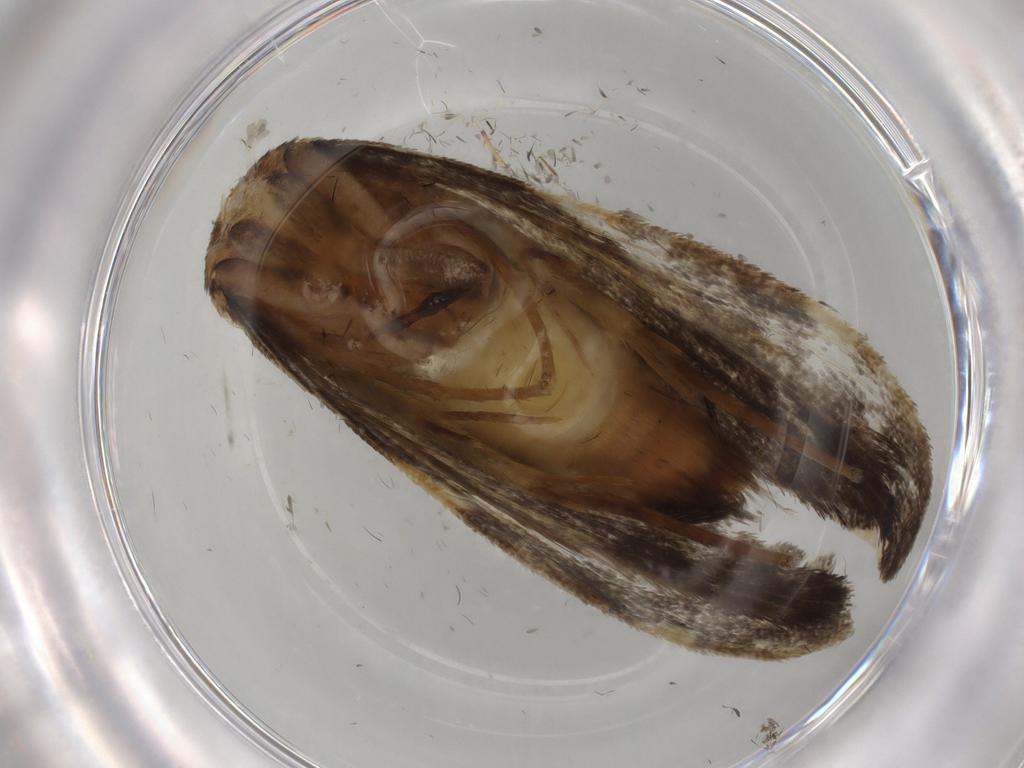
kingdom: Animalia
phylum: Arthropoda
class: Insecta
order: Lepidoptera
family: Psychidae
